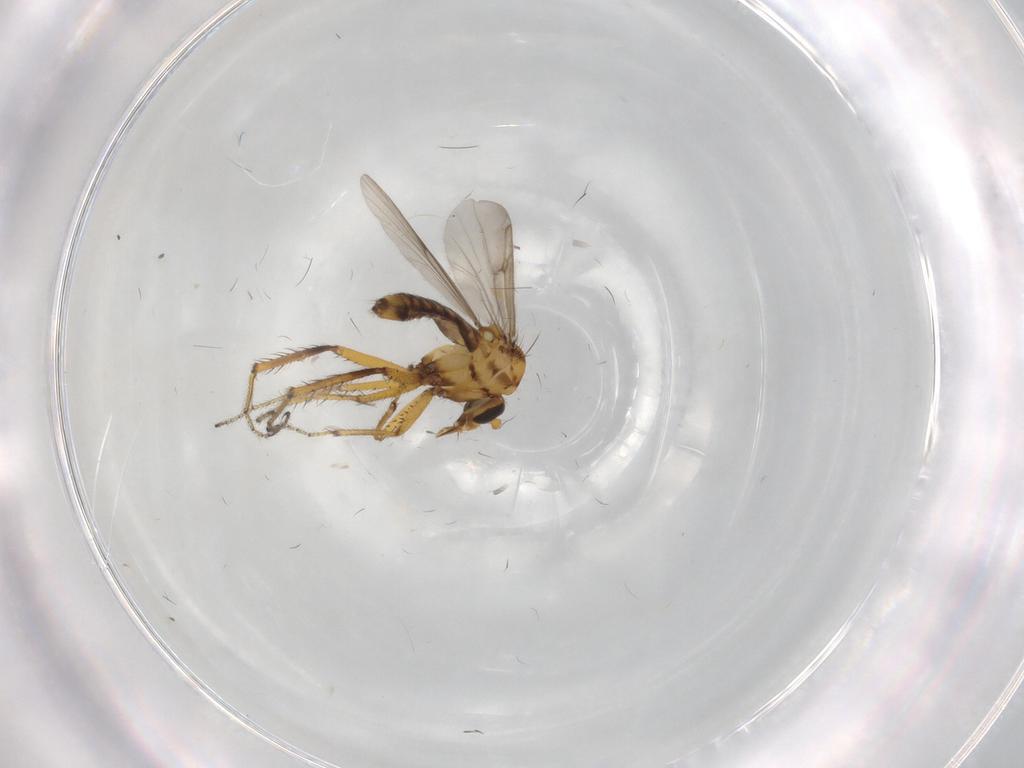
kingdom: Animalia
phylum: Arthropoda
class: Insecta
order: Diptera
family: Ceratopogonidae
